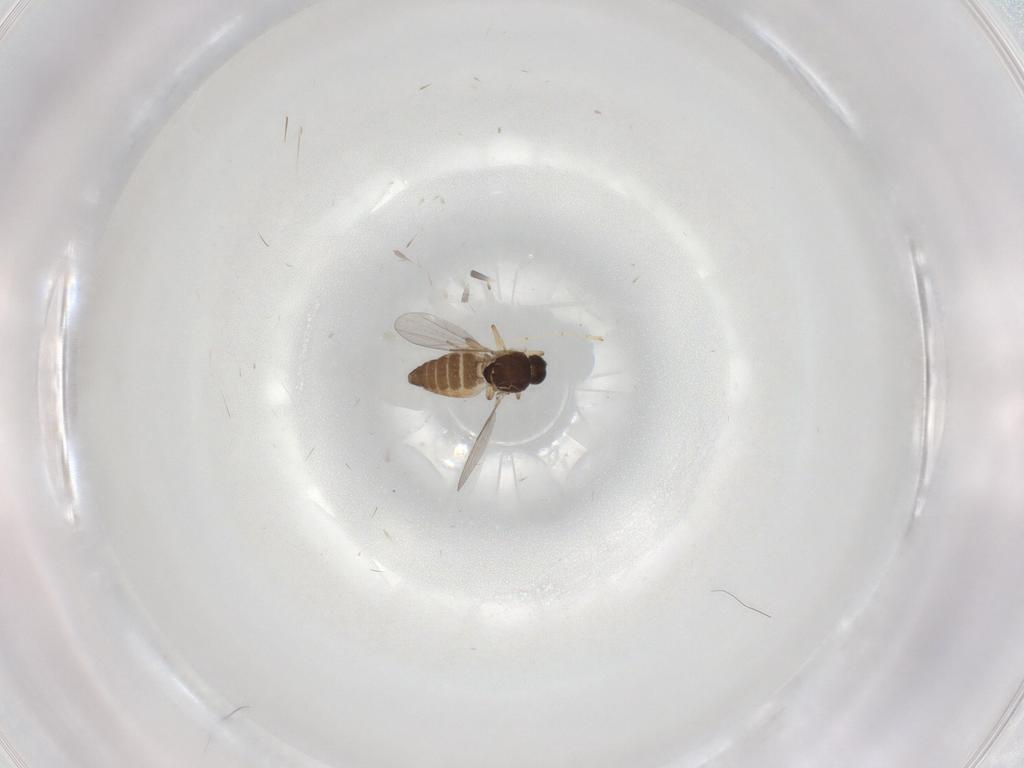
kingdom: Animalia
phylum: Arthropoda
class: Insecta
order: Diptera
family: Ceratopogonidae
